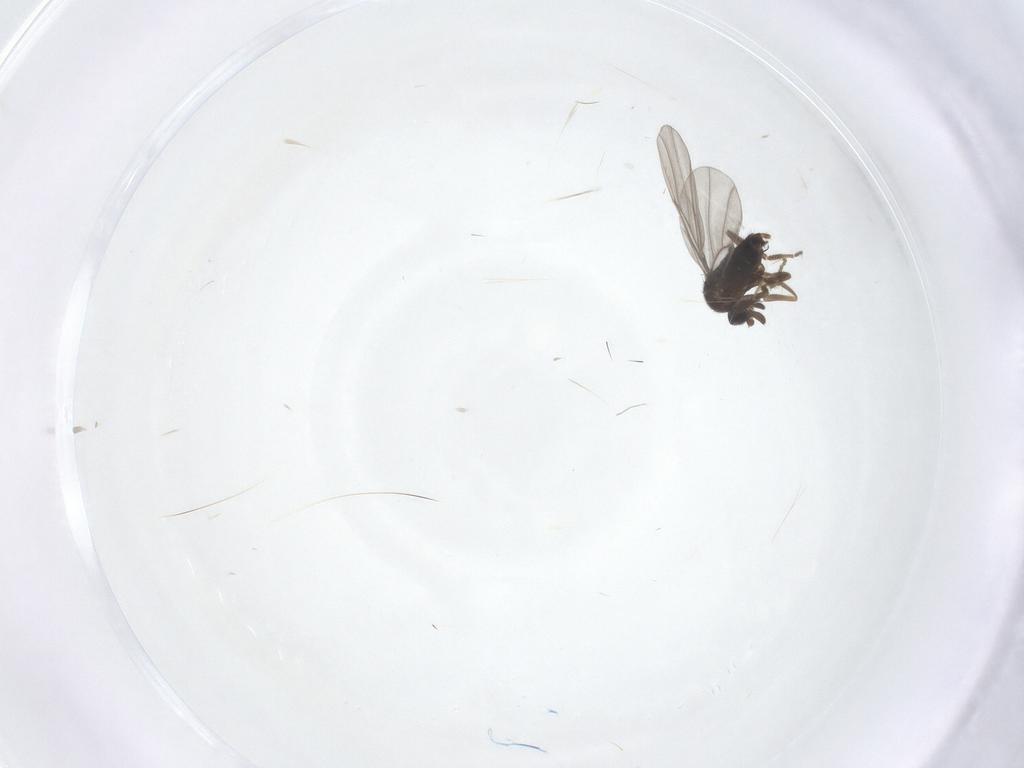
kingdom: Animalia
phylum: Arthropoda
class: Insecta
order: Diptera
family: Phoridae
